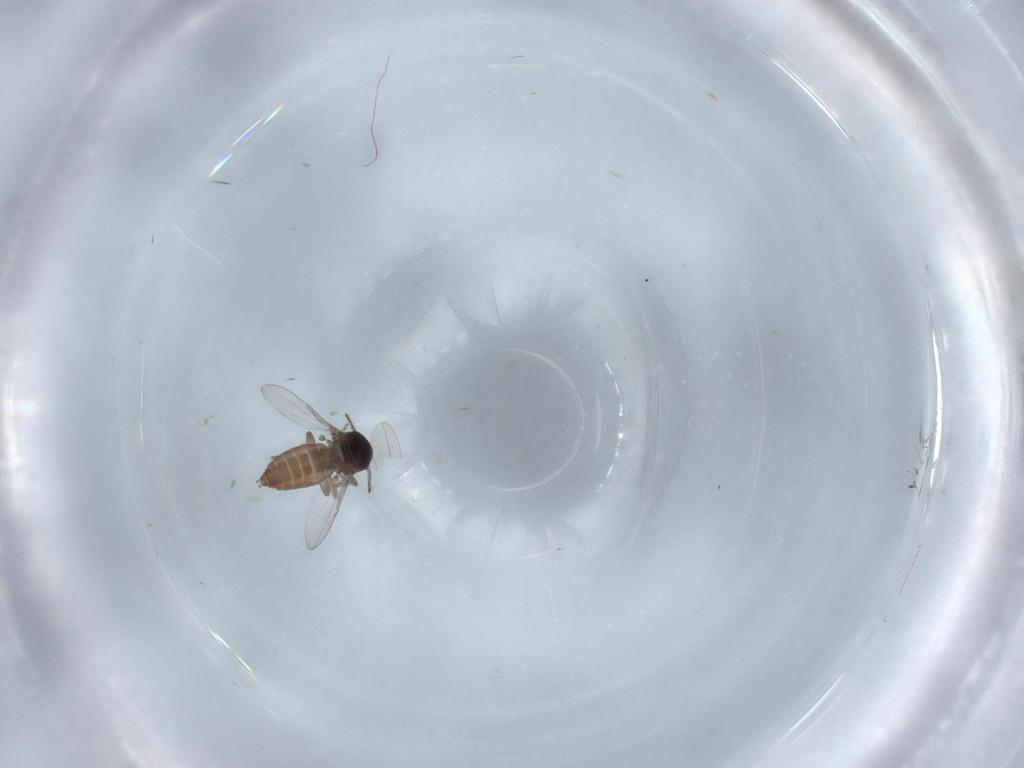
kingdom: Animalia
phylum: Arthropoda
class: Insecta
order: Diptera
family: Ceratopogonidae
